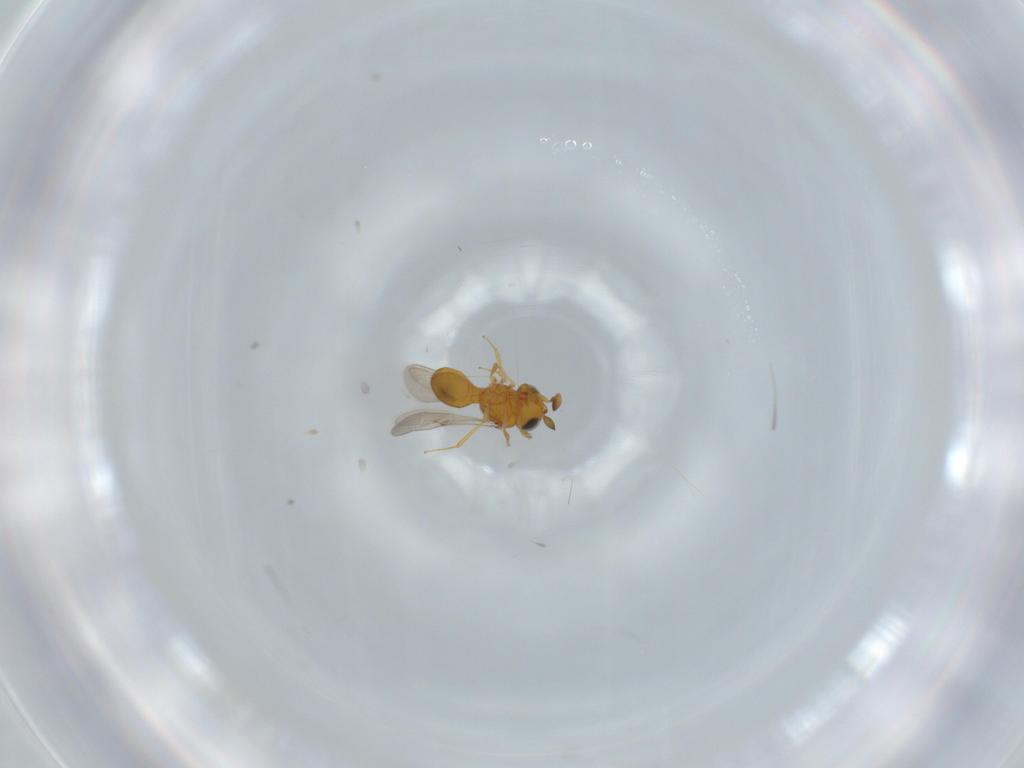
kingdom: Animalia
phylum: Arthropoda
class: Insecta
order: Hymenoptera
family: Scelionidae
